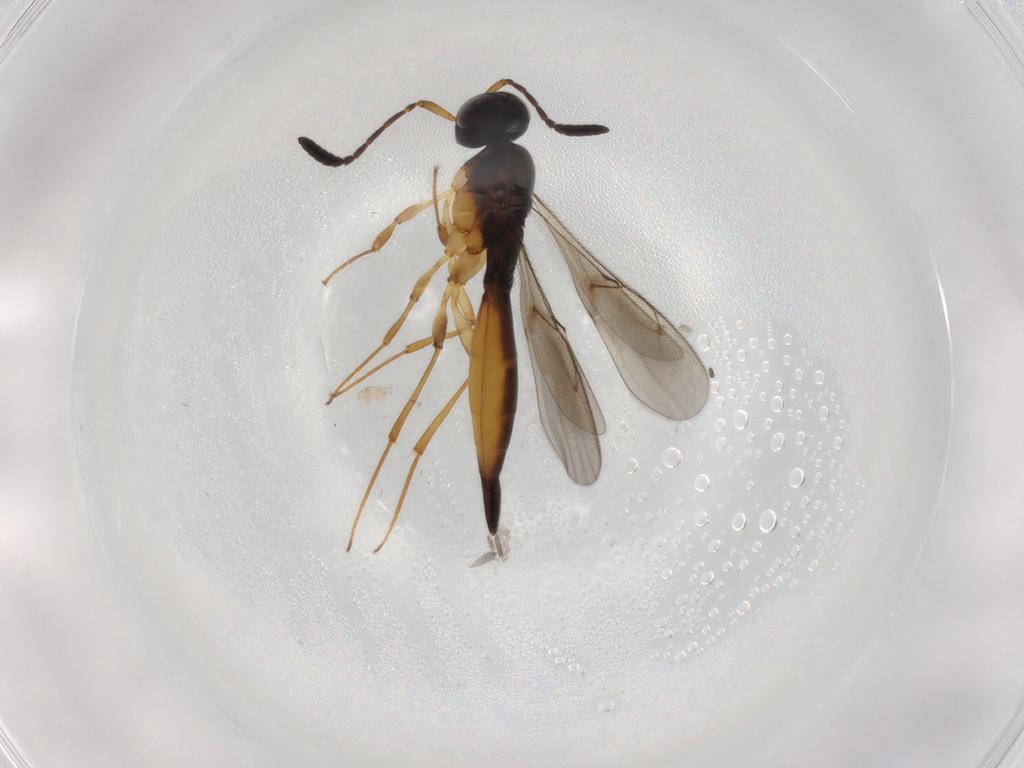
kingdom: Animalia
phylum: Arthropoda
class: Insecta
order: Hymenoptera
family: Scelionidae
